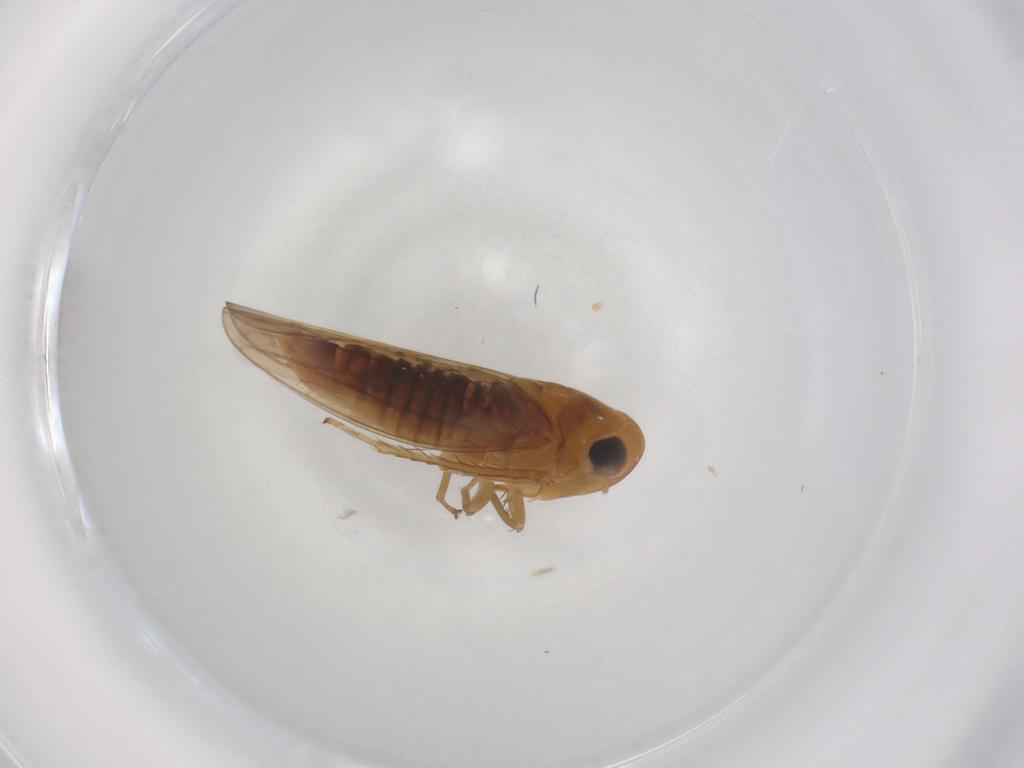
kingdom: Animalia
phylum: Arthropoda
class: Insecta
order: Hemiptera
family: Cicadellidae
